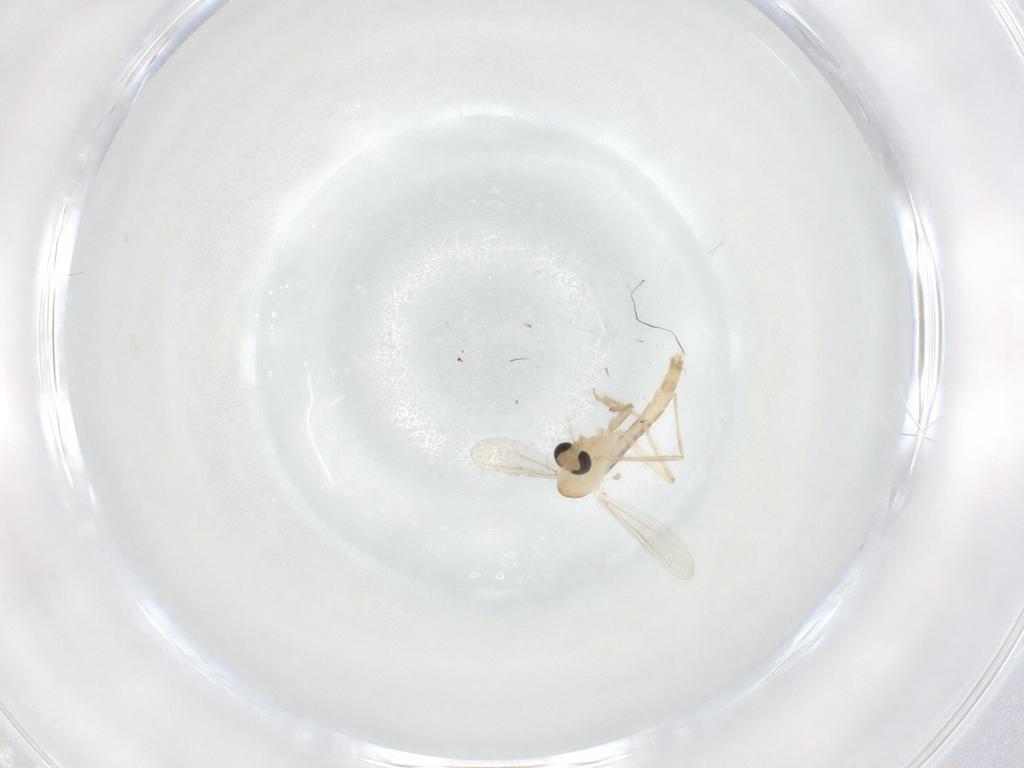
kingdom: Animalia
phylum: Arthropoda
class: Insecta
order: Diptera
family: Chironomidae
